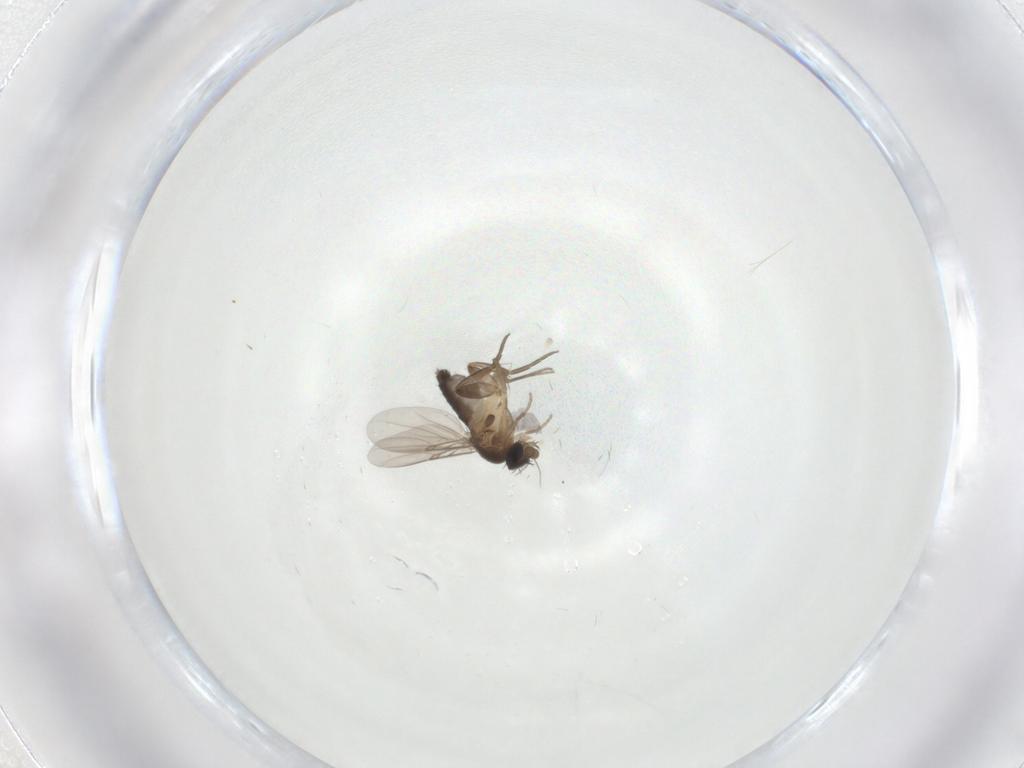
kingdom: Animalia
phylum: Arthropoda
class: Insecta
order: Diptera
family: Phoridae
